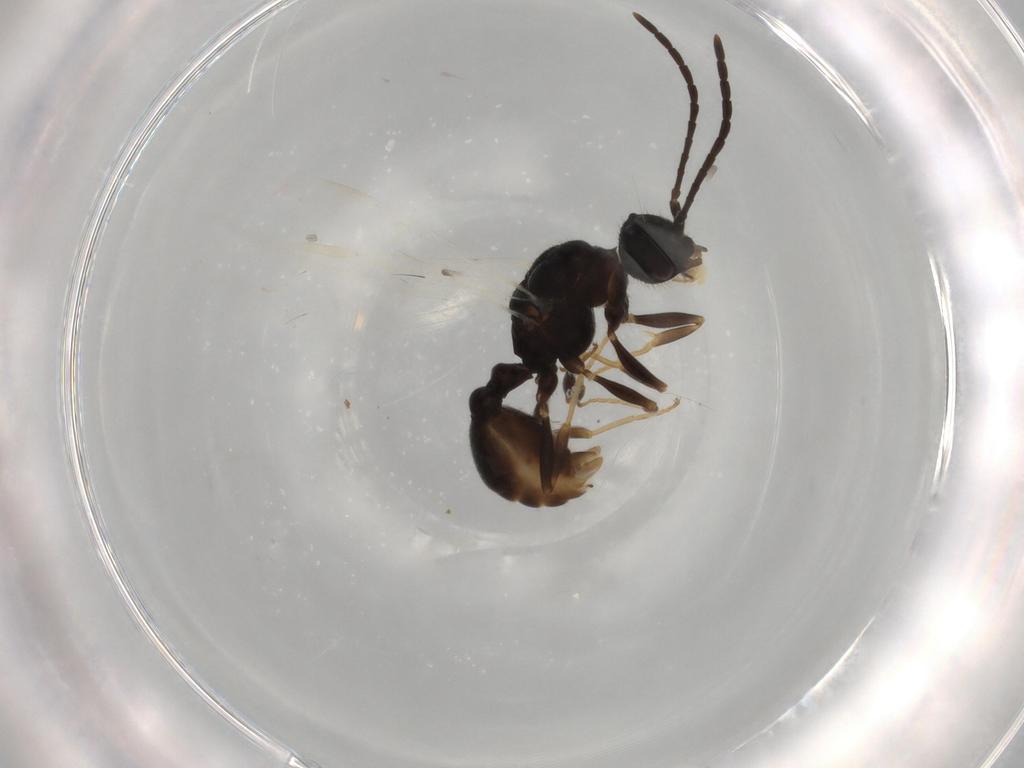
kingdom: Animalia
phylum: Arthropoda
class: Insecta
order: Hymenoptera
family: Formicidae
